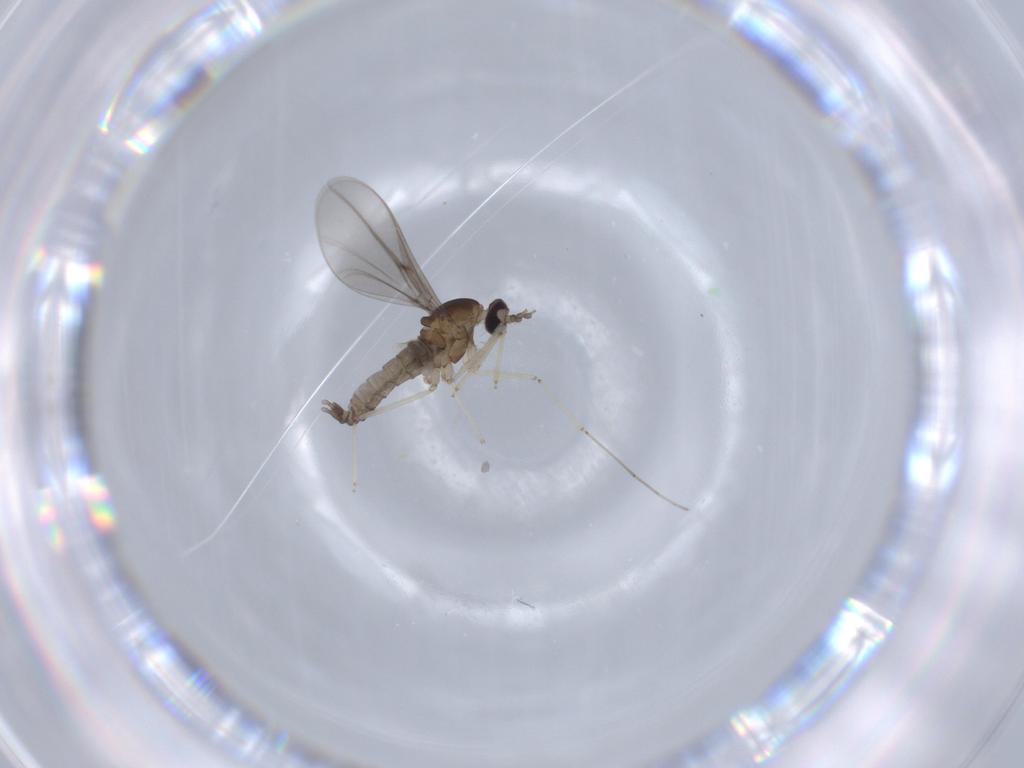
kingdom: Animalia
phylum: Arthropoda
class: Insecta
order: Diptera
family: Cecidomyiidae
